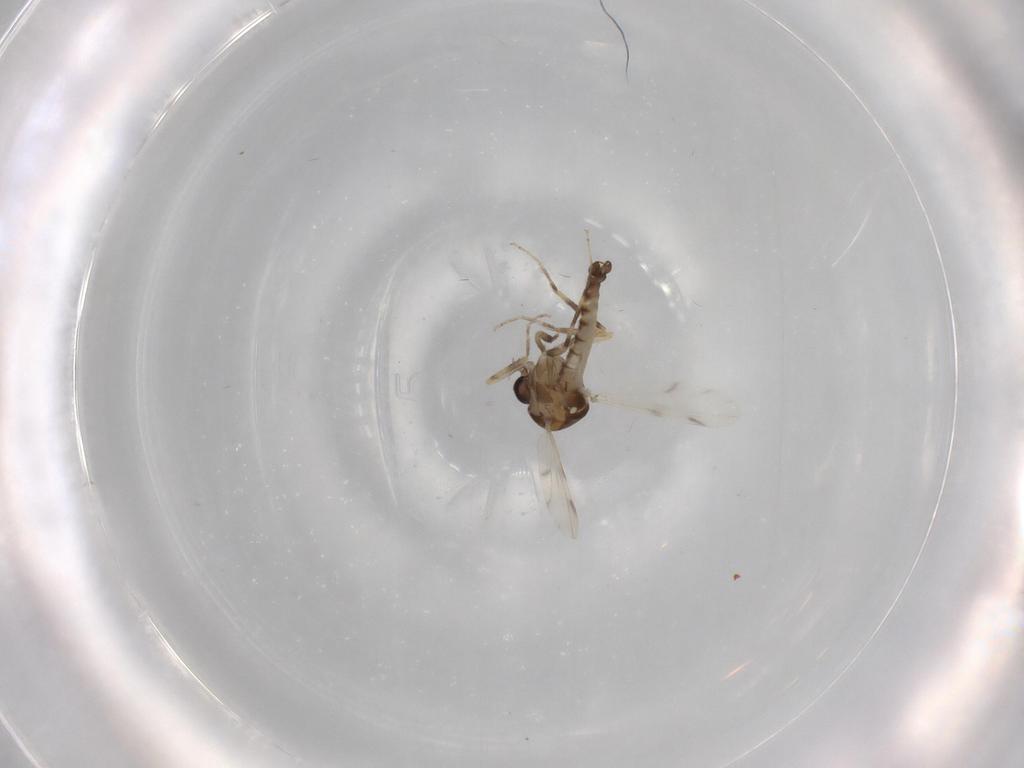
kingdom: Animalia
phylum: Arthropoda
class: Insecta
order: Diptera
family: Ceratopogonidae
